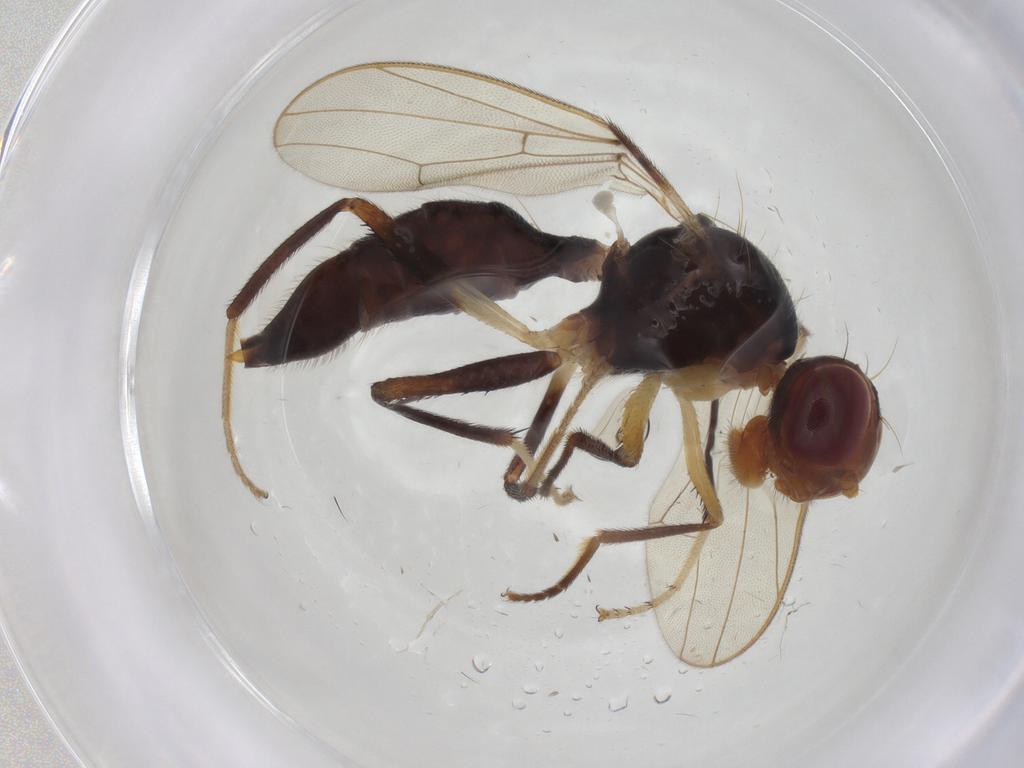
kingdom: Animalia
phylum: Arthropoda
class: Insecta
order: Diptera
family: Richardiidae
